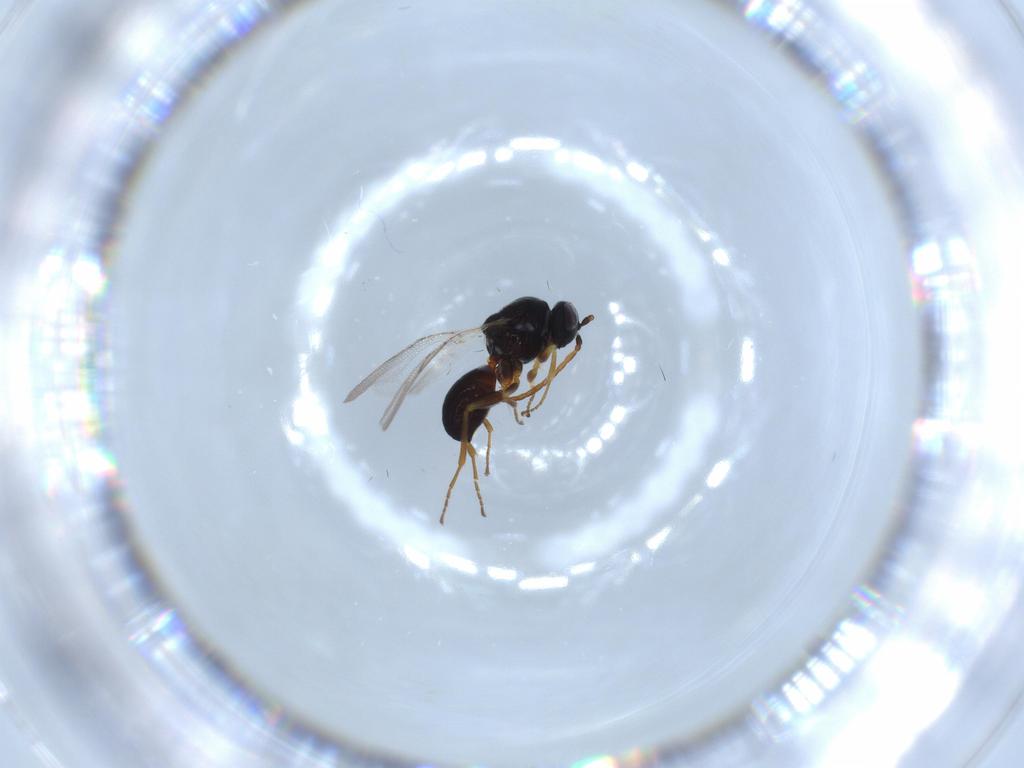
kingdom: Animalia
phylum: Arthropoda
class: Insecta
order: Hymenoptera
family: Figitidae
